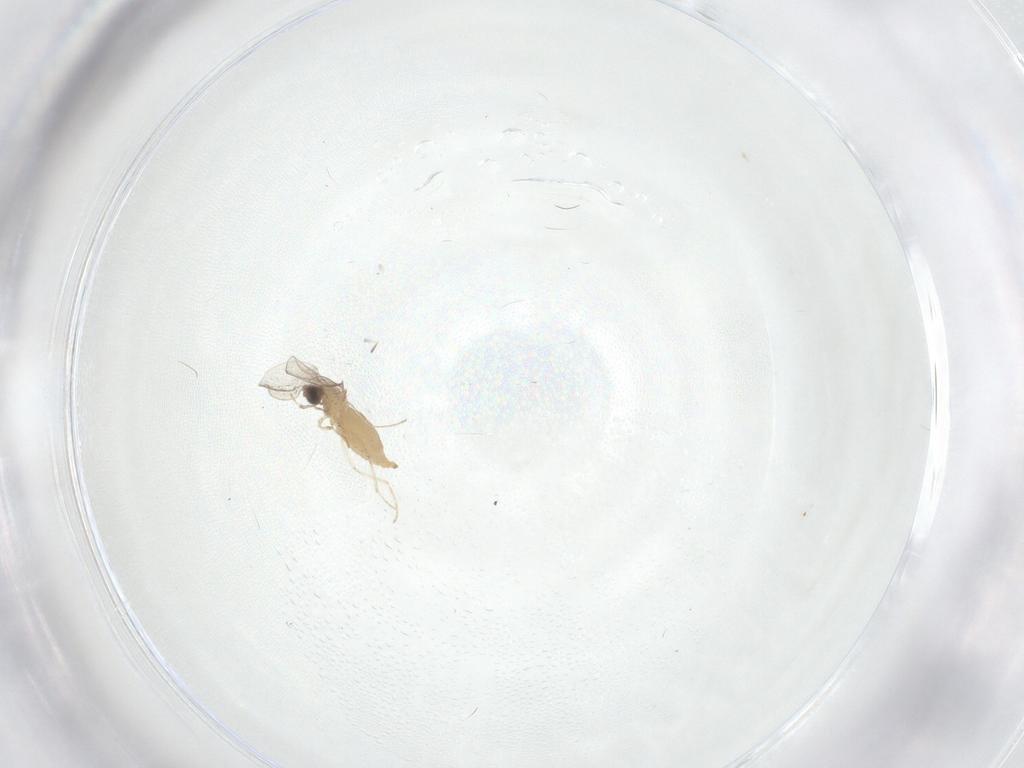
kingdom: Animalia
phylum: Arthropoda
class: Insecta
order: Diptera
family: Cecidomyiidae
